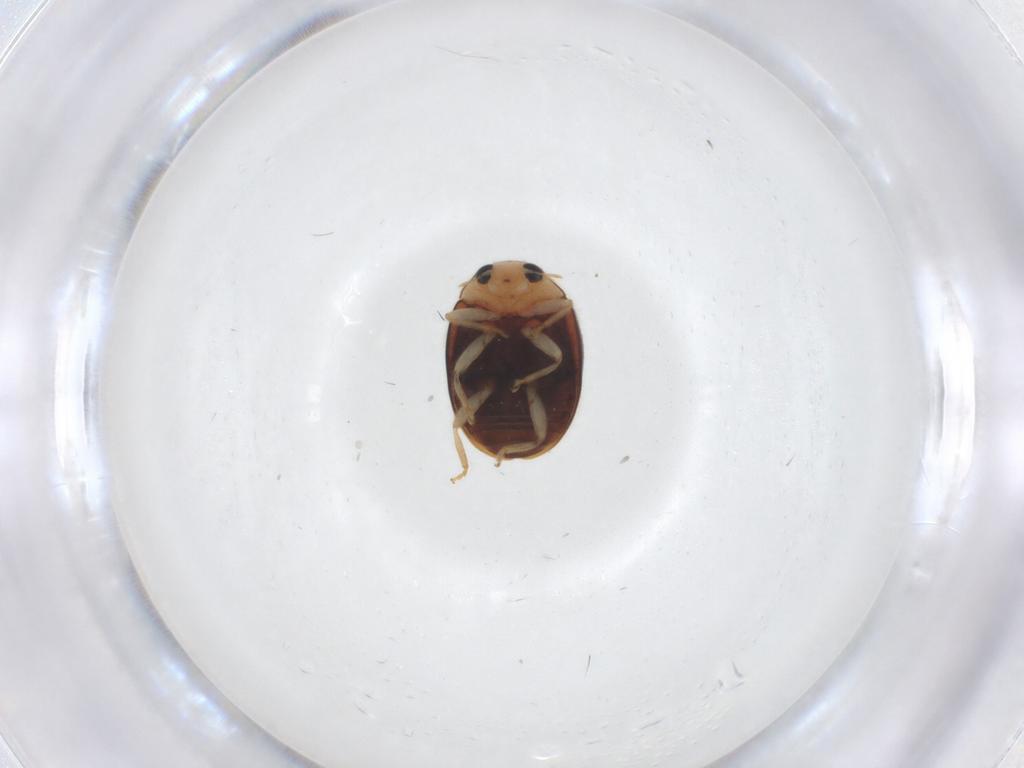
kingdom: Animalia
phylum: Arthropoda
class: Insecta
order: Coleoptera
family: Coccinellidae
